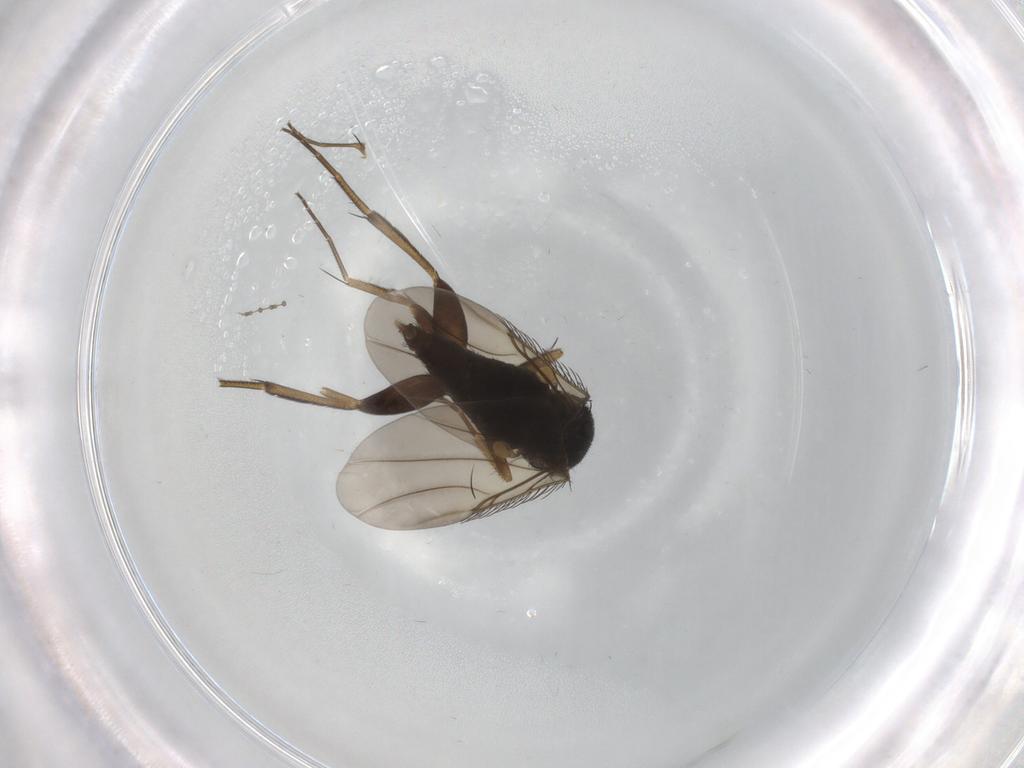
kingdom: Animalia
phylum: Arthropoda
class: Insecta
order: Diptera
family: Phoridae
